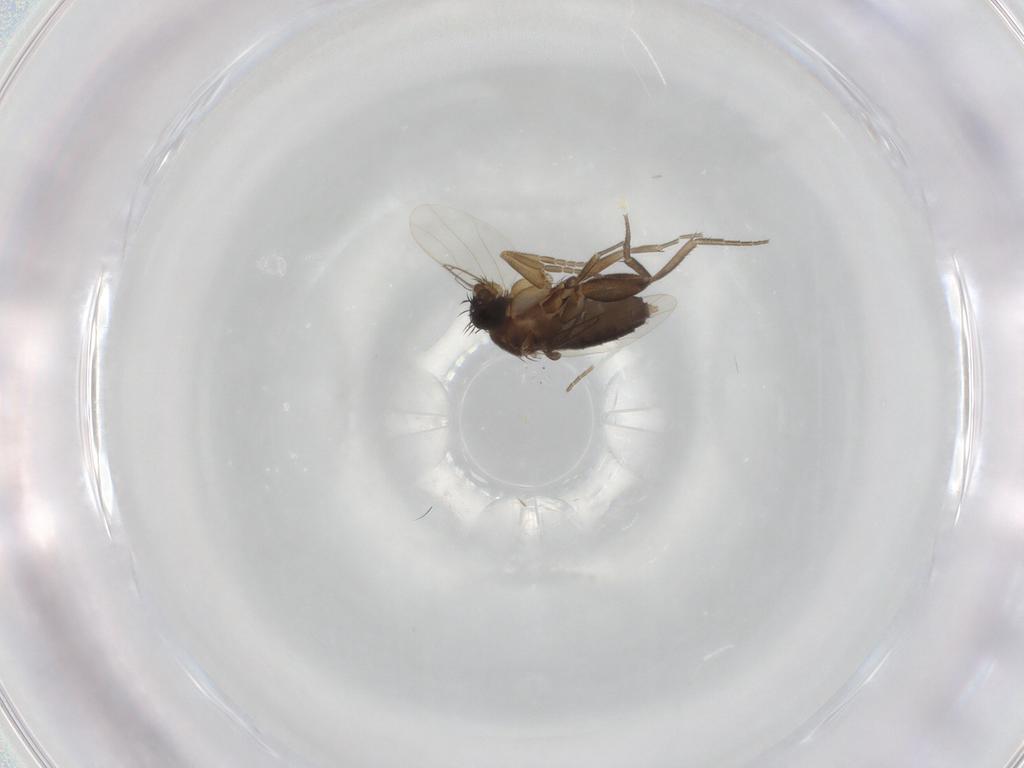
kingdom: Animalia
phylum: Arthropoda
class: Insecta
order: Diptera
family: Phoridae
